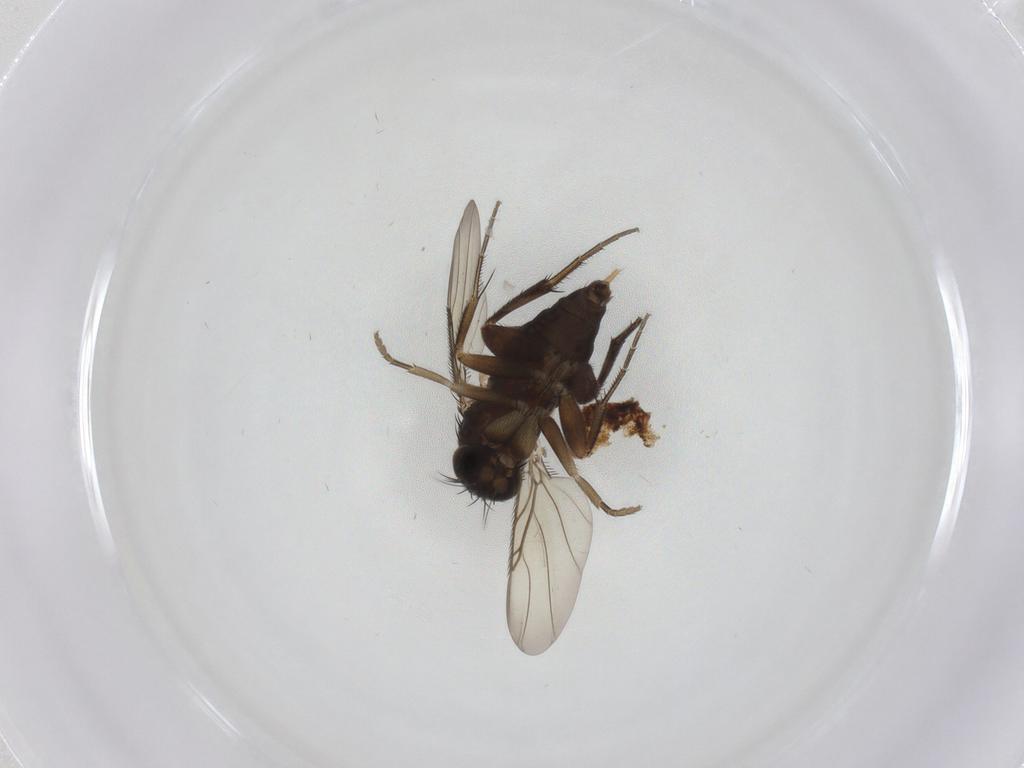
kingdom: Animalia
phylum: Arthropoda
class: Insecta
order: Diptera
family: Phoridae
